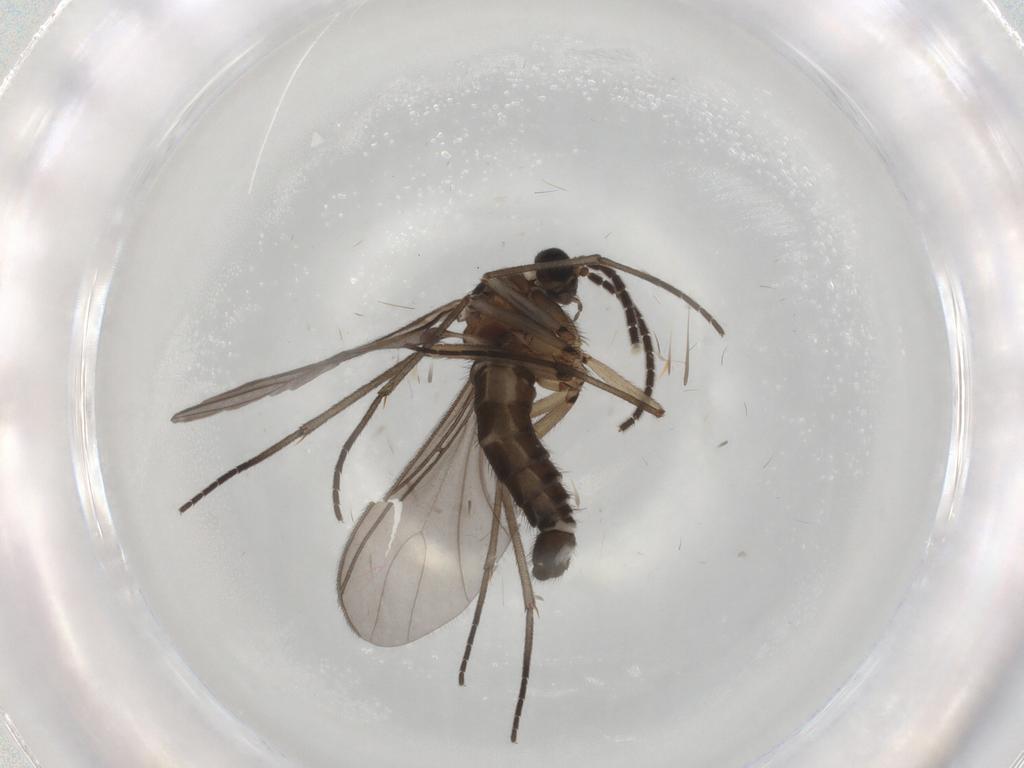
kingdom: Animalia
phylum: Arthropoda
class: Insecta
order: Diptera
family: Sciaridae
